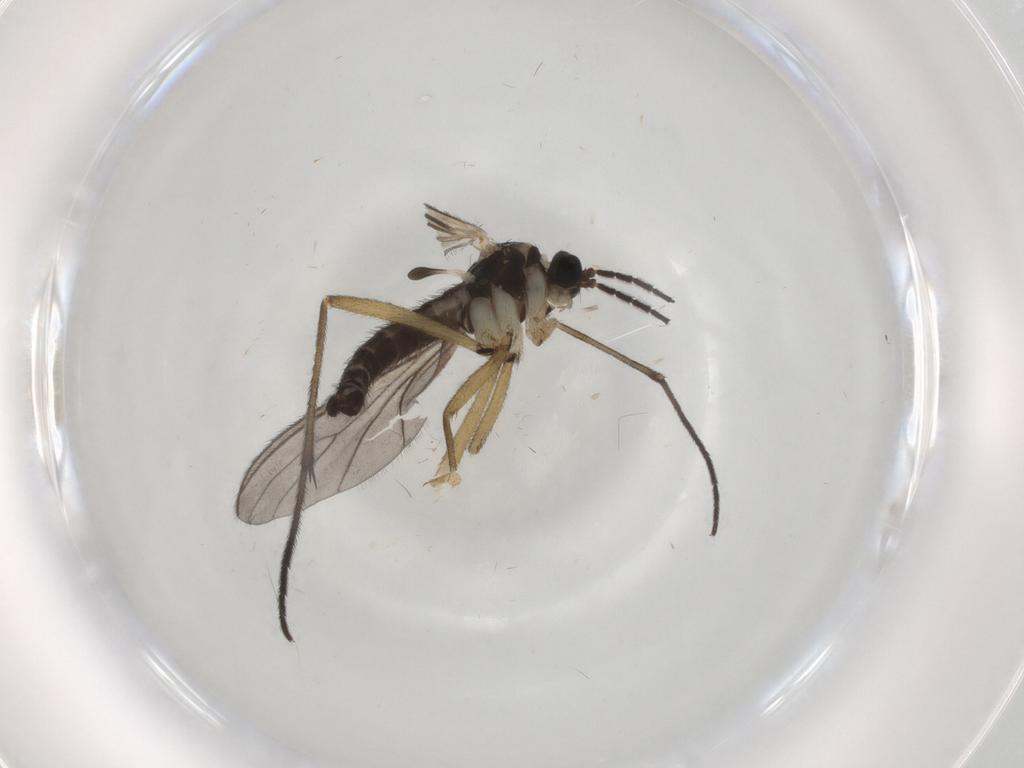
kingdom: Animalia
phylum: Arthropoda
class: Insecta
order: Diptera
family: Sciaridae
